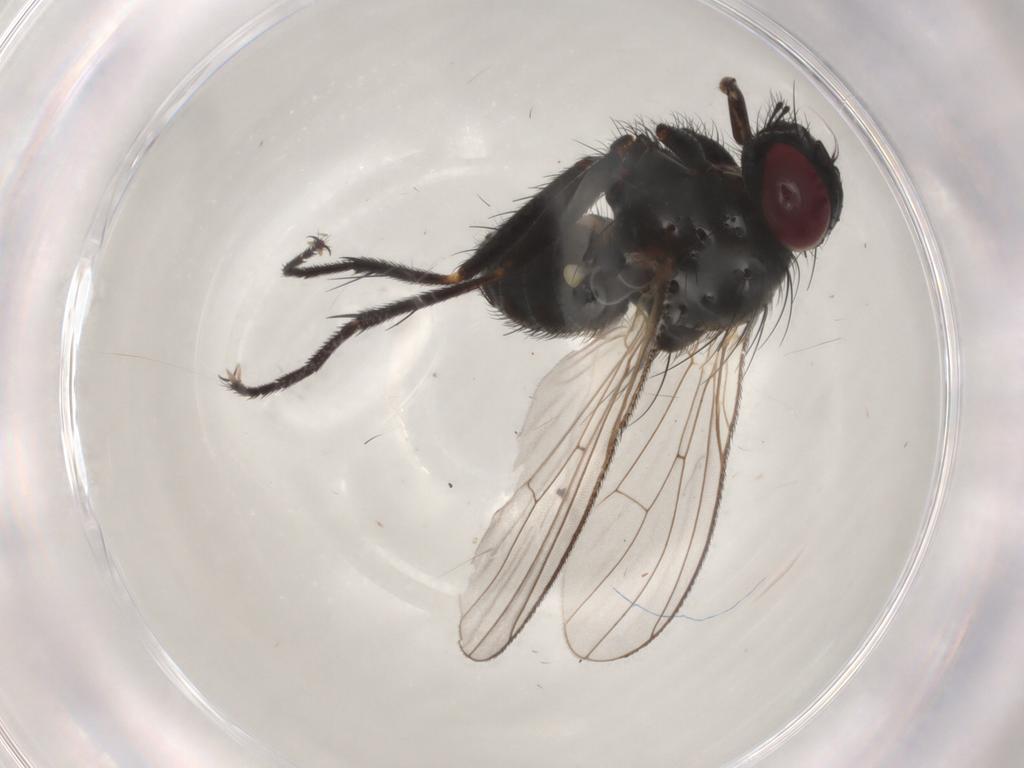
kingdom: Animalia
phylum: Arthropoda
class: Insecta
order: Diptera
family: Muscidae
